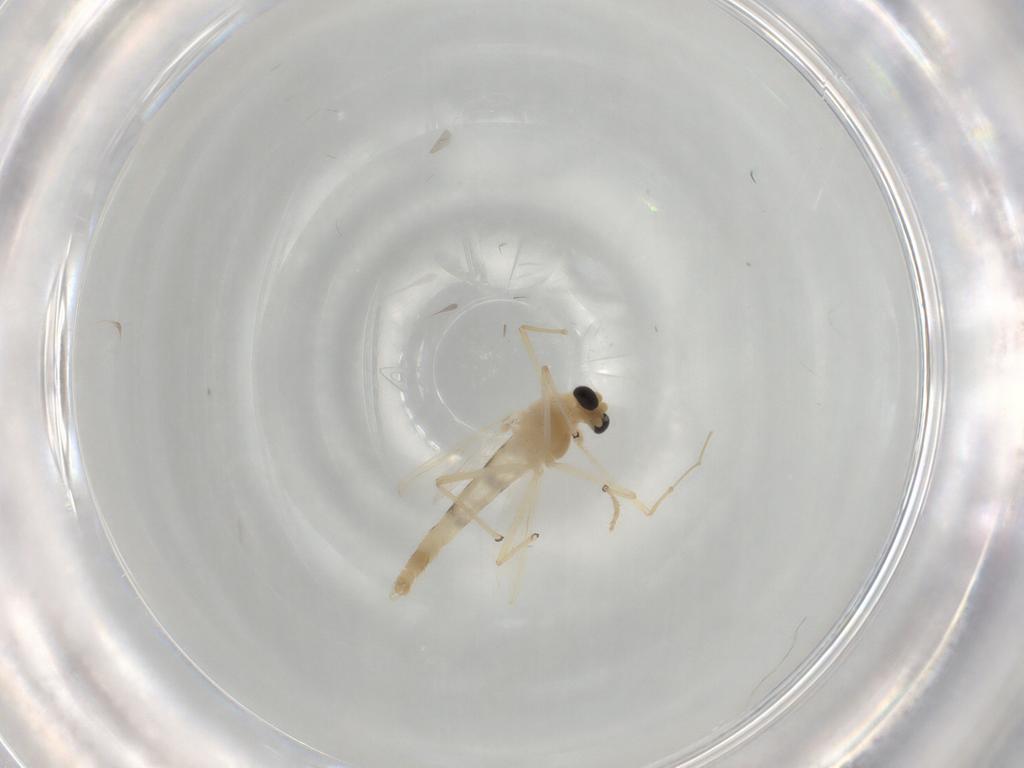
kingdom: Animalia
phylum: Arthropoda
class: Insecta
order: Diptera
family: Chironomidae
